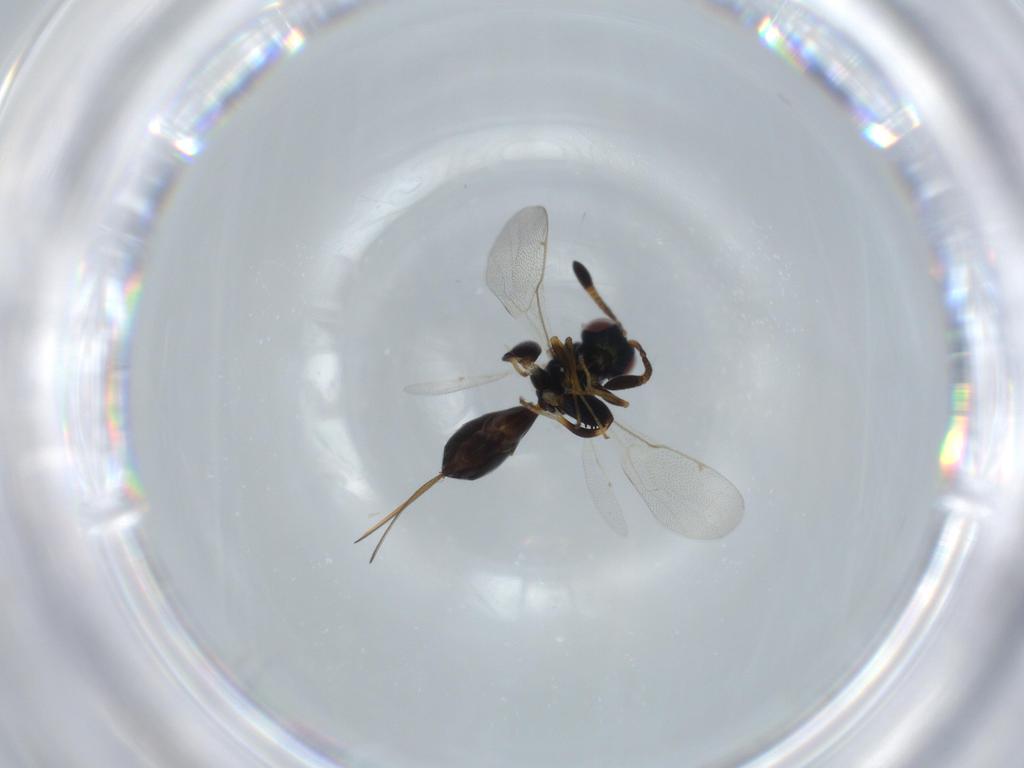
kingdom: Animalia
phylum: Arthropoda
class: Insecta
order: Hymenoptera
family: Torymidae
